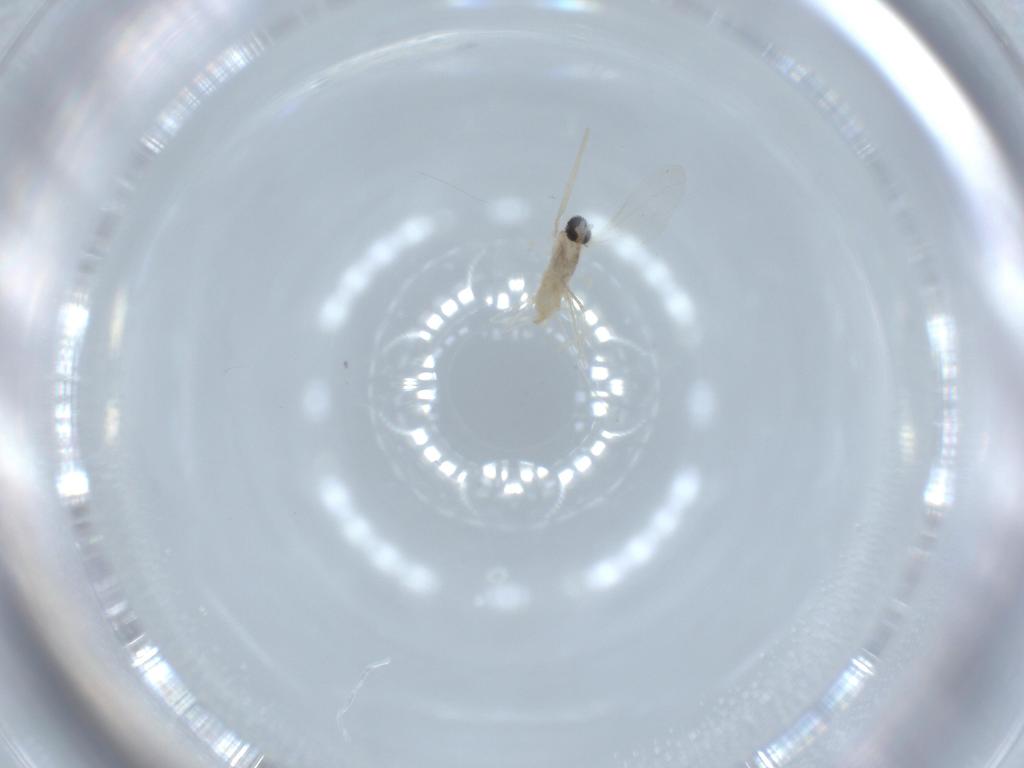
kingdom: Animalia
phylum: Arthropoda
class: Insecta
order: Diptera
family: Cecidomyiidae
